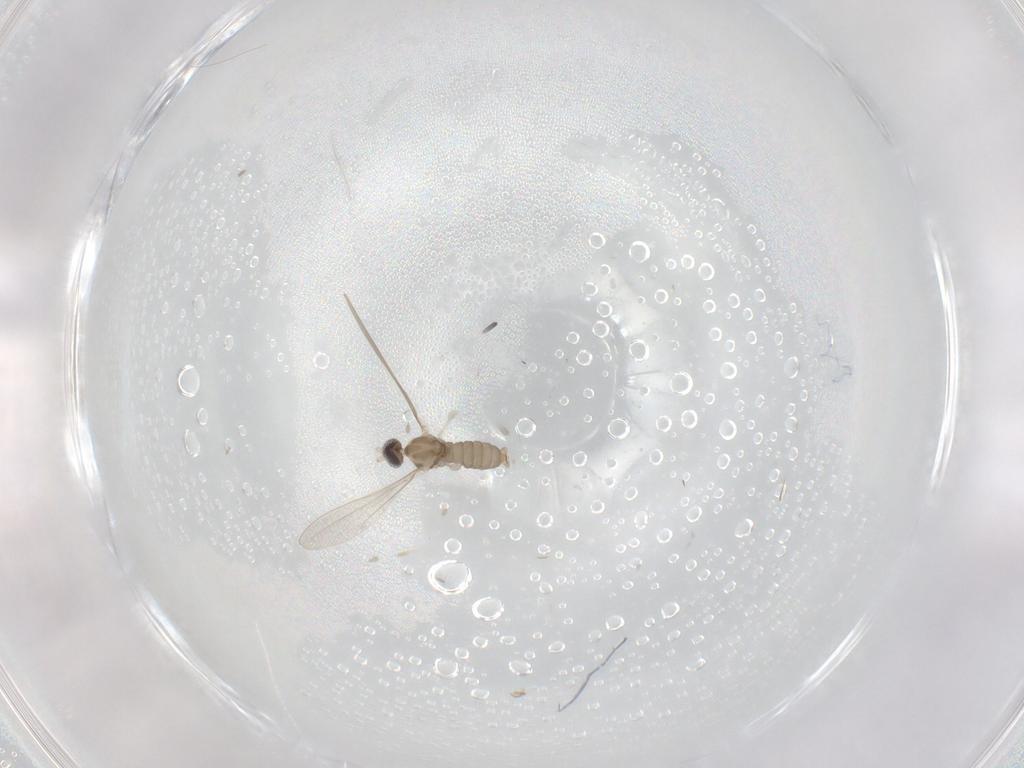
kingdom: Animalia
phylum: Arthropoda
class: Insecta
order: Diptera
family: Cecidomyiidae
